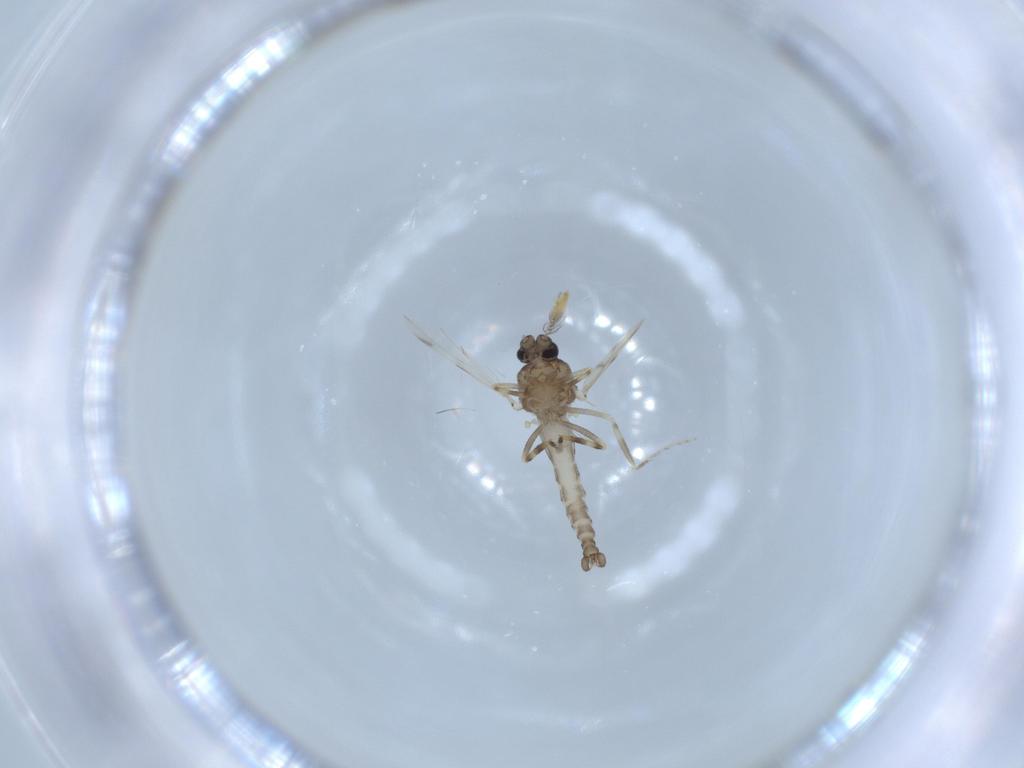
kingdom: Animalia
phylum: Arthropoda
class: Insecta
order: Diptera
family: Ceratopogonidae
